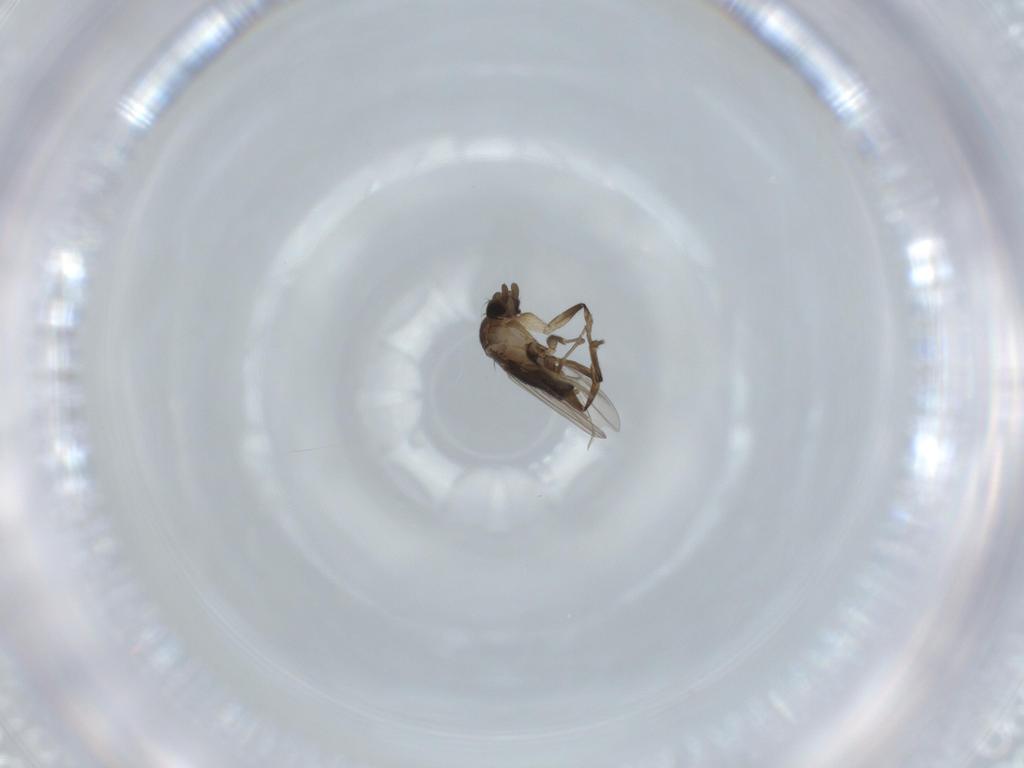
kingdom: Animalia
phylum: Arthropoda
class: Insecta
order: Diptera
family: Phoridae
